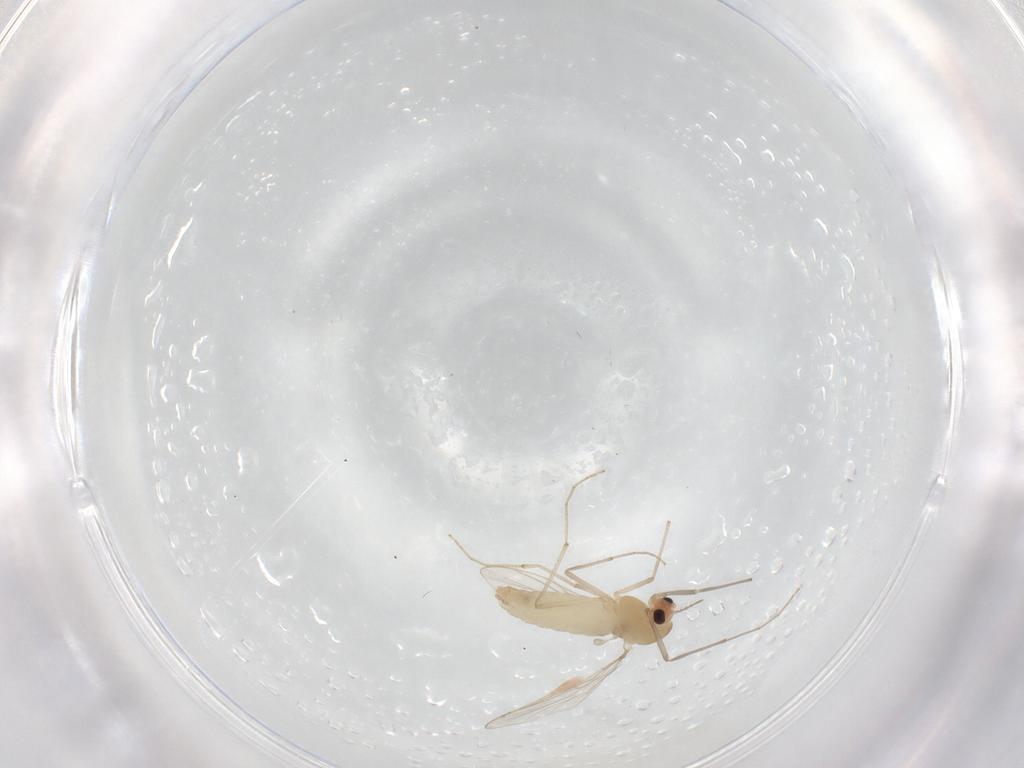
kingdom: Animalia
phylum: Arthropoda
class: Insecta
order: Diptera
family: Chironomidae
